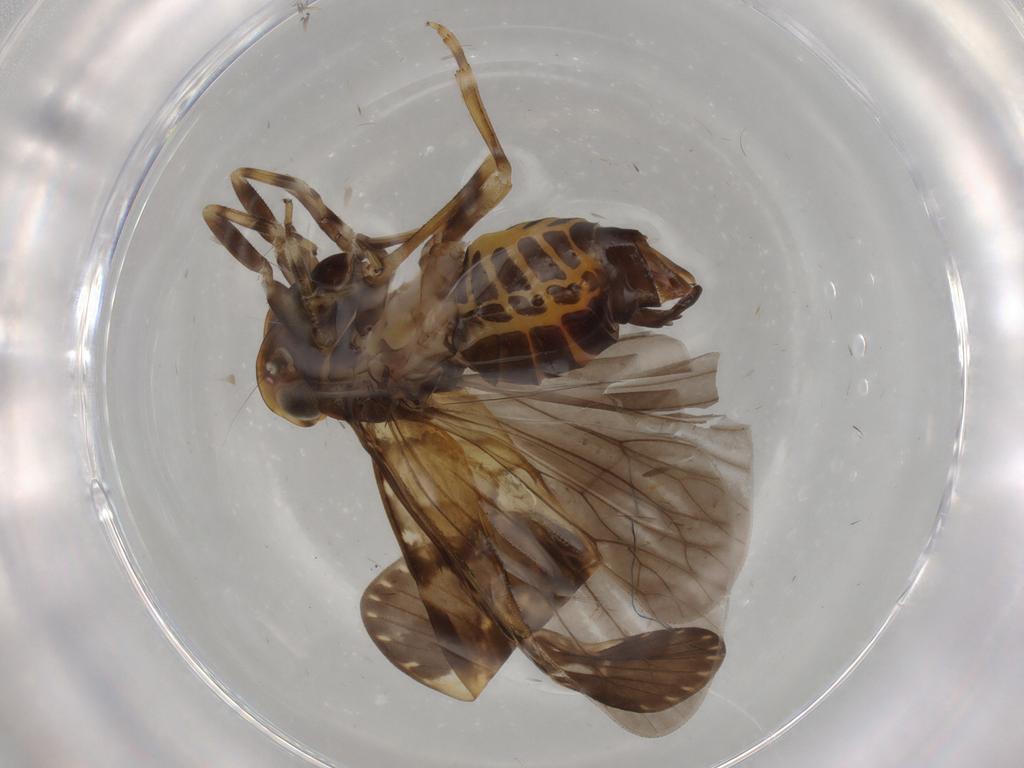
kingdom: Animalia
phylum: Arthropoda
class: Insecta
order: Hemiptera
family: Cixiidae
